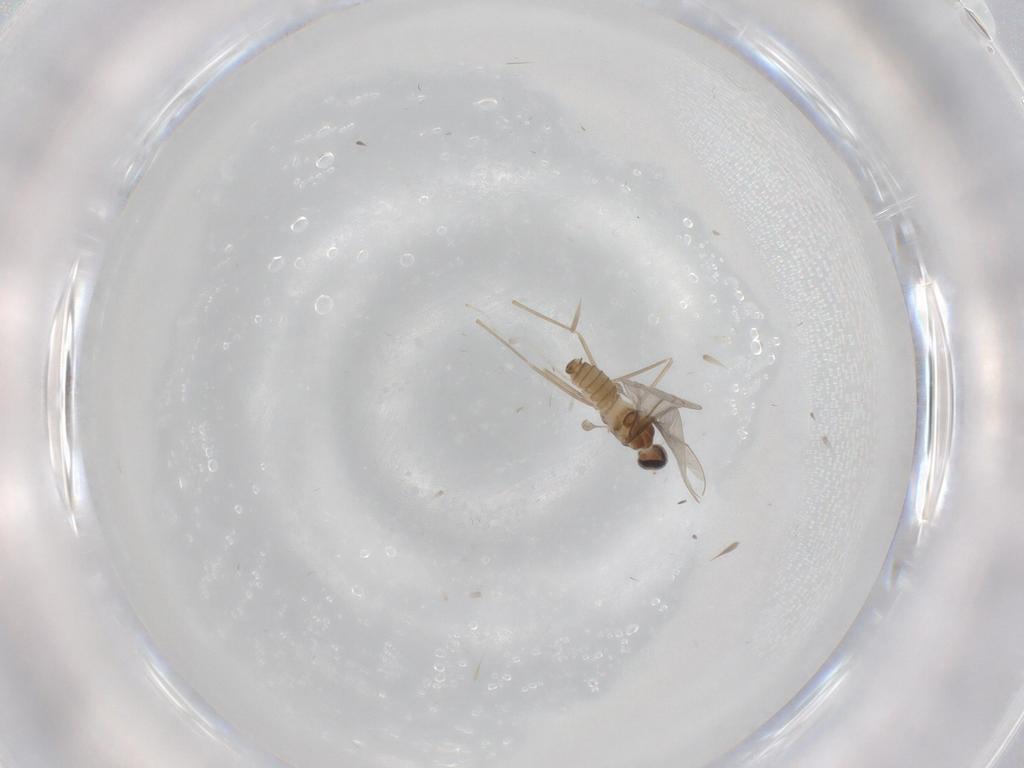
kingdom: Animalia
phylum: Arthropoda
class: Insecta
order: Diptera
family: Cecidomyiidae
